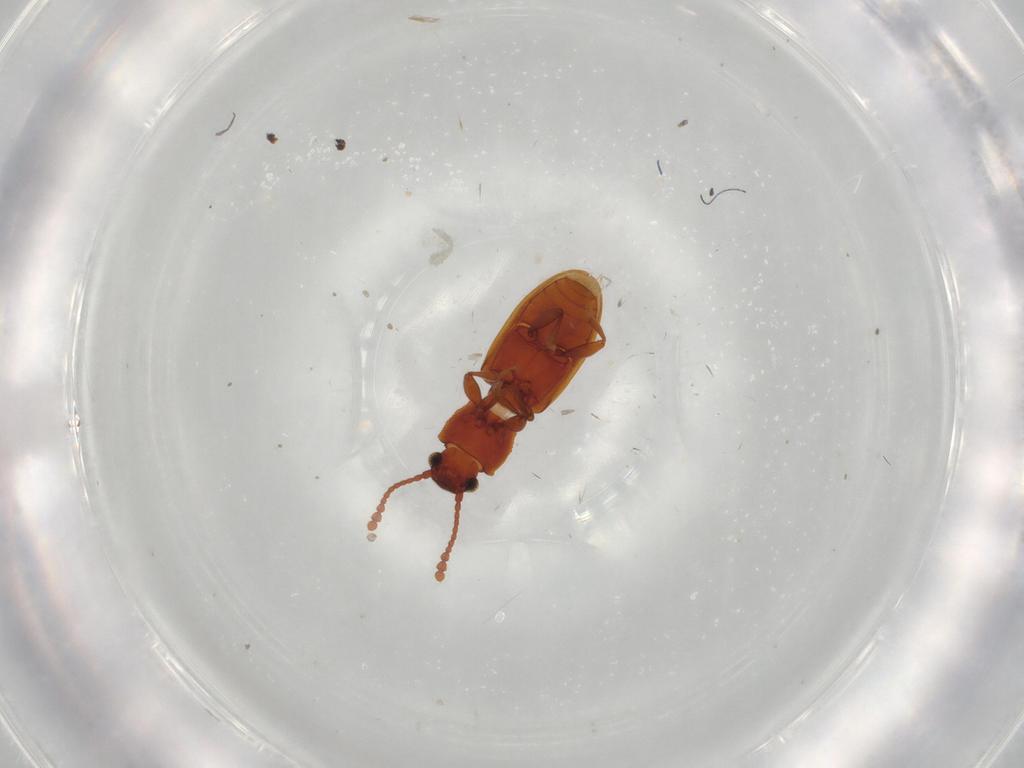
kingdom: Animalia
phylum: Arthropoda
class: Insecta
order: Coleoptera
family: Silvanidae
